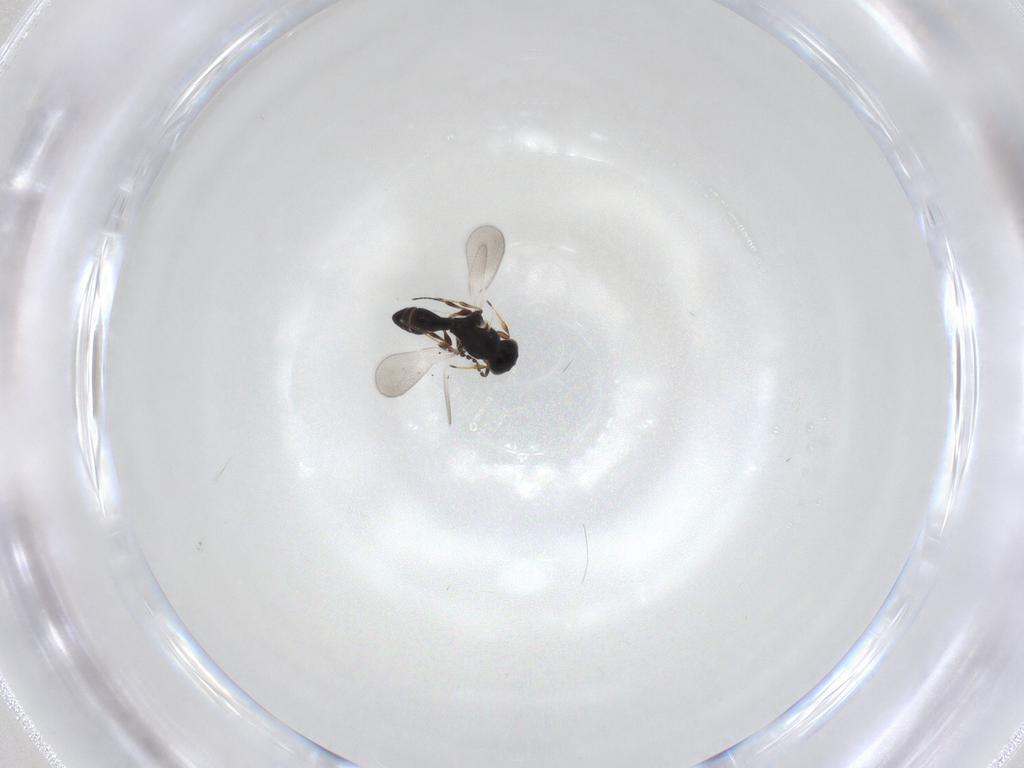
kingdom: Animalia
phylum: Arthropoda
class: Insecta
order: Hymenoptera
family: Platygastridae
